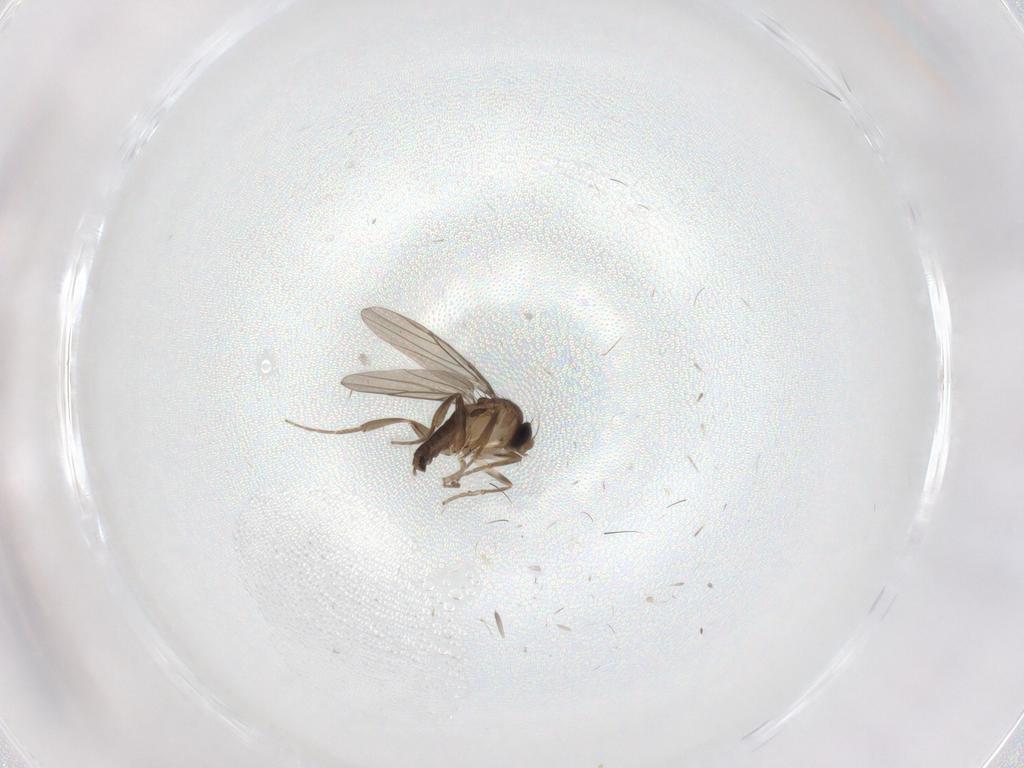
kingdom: Animalia
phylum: Arthropoda
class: Insecta
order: Diptera
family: Chironomidae
